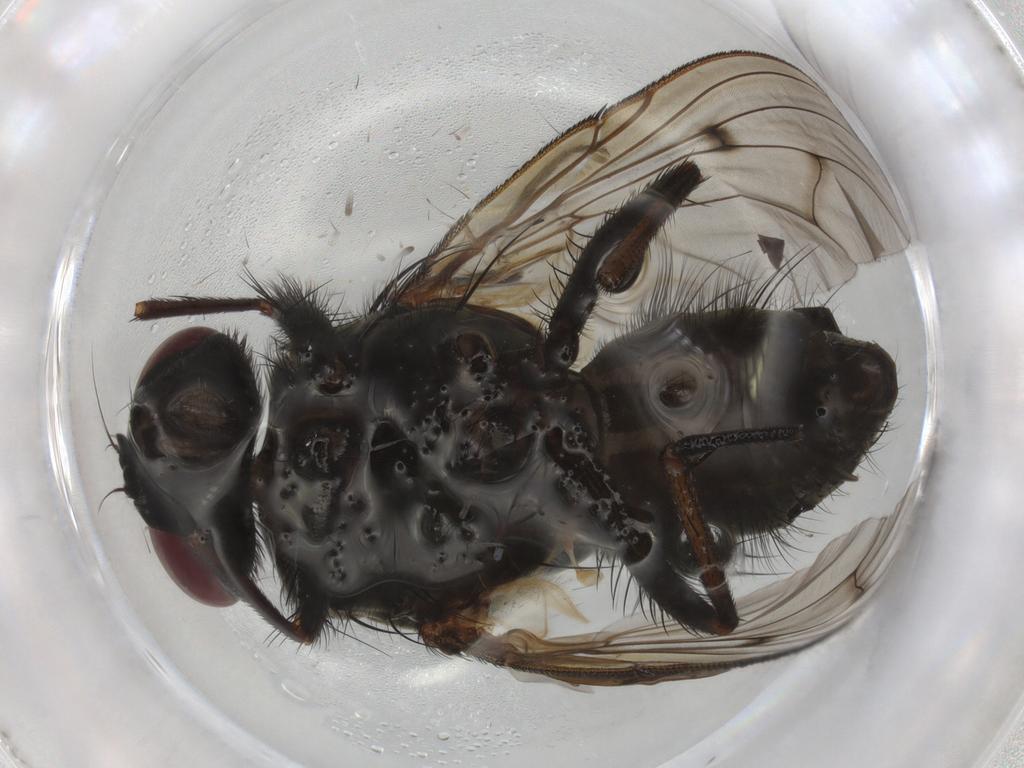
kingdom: Animalia
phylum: Arthropoda
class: Insecta
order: Diptera
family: Muscidae
